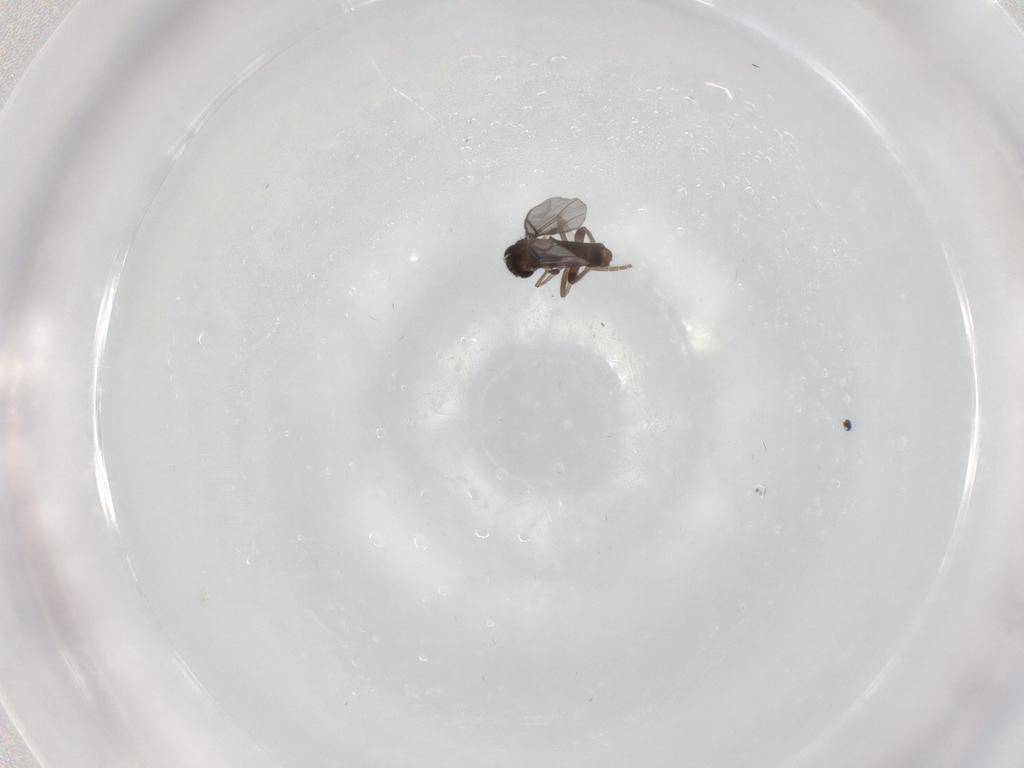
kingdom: Animalia
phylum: Arthropoda
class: Insecta
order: Diptera
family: Cecidomyiidae
